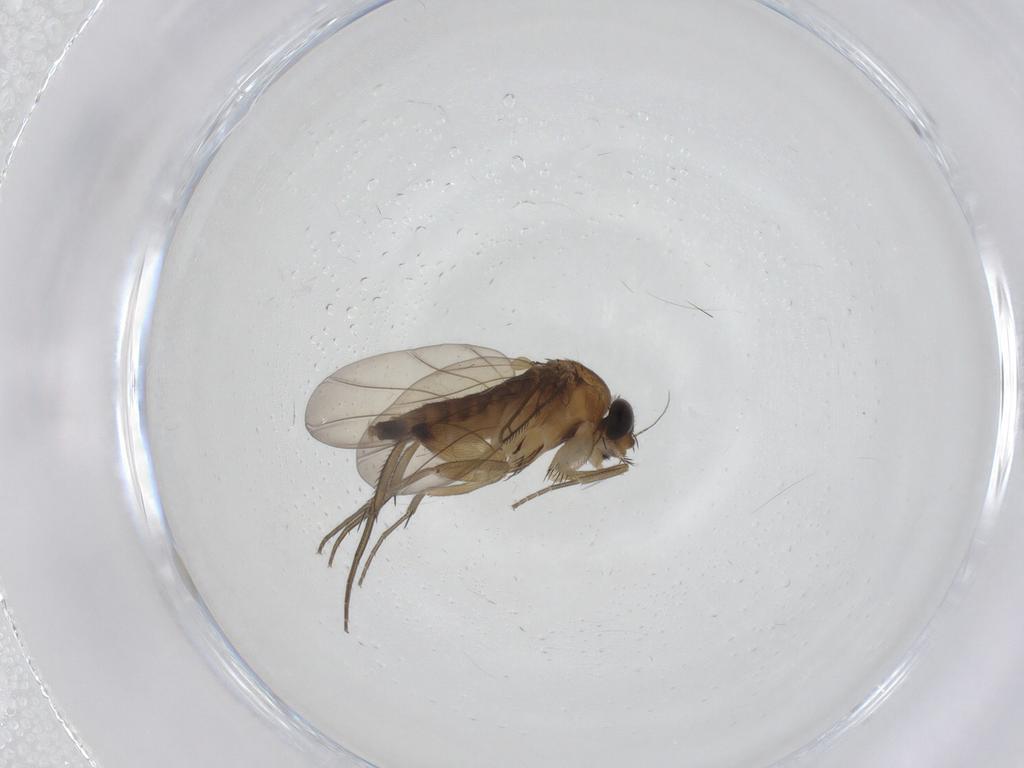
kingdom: Animalia
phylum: Arthropoda
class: Insecta
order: Diptera
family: Phoridae
